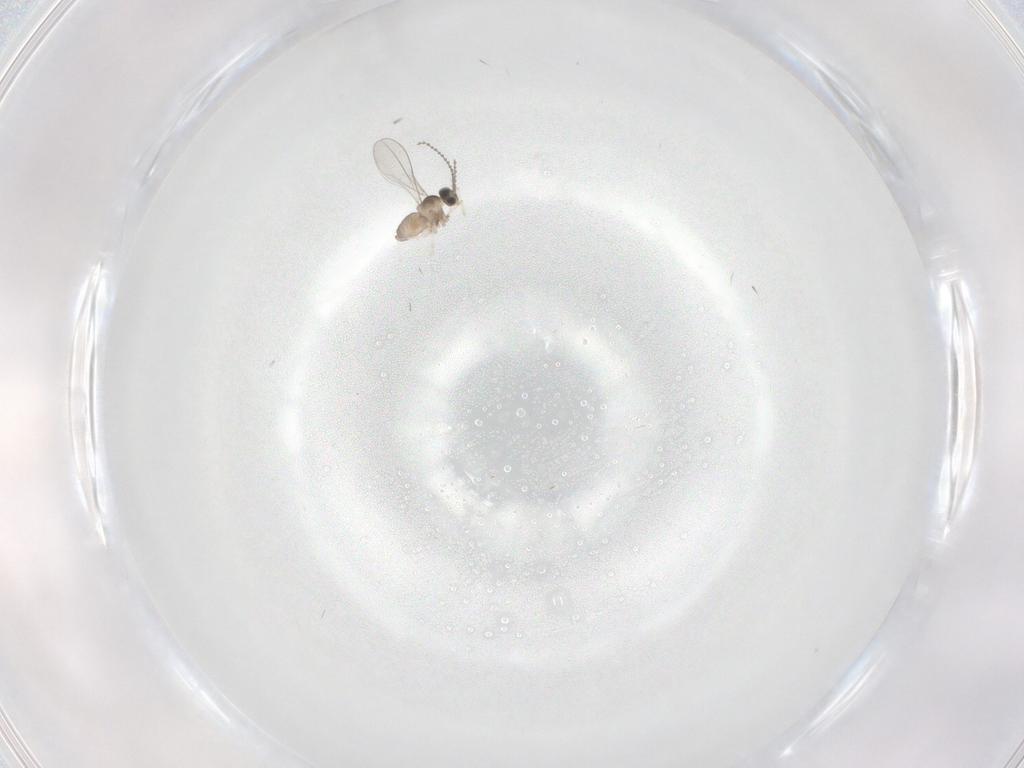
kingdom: Animalia
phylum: Arthropoda
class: Insecta
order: Diptera
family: Sciaridae
